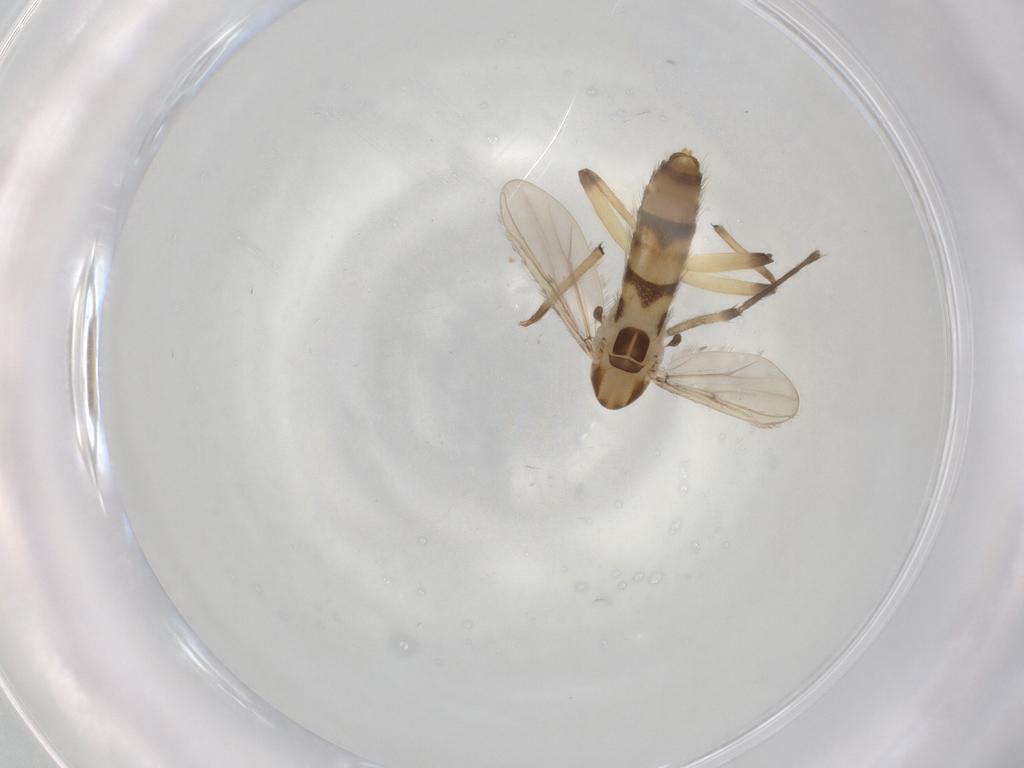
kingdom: Animalia
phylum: Arthropoda
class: Insecta
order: Diptera
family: Chironomidae
